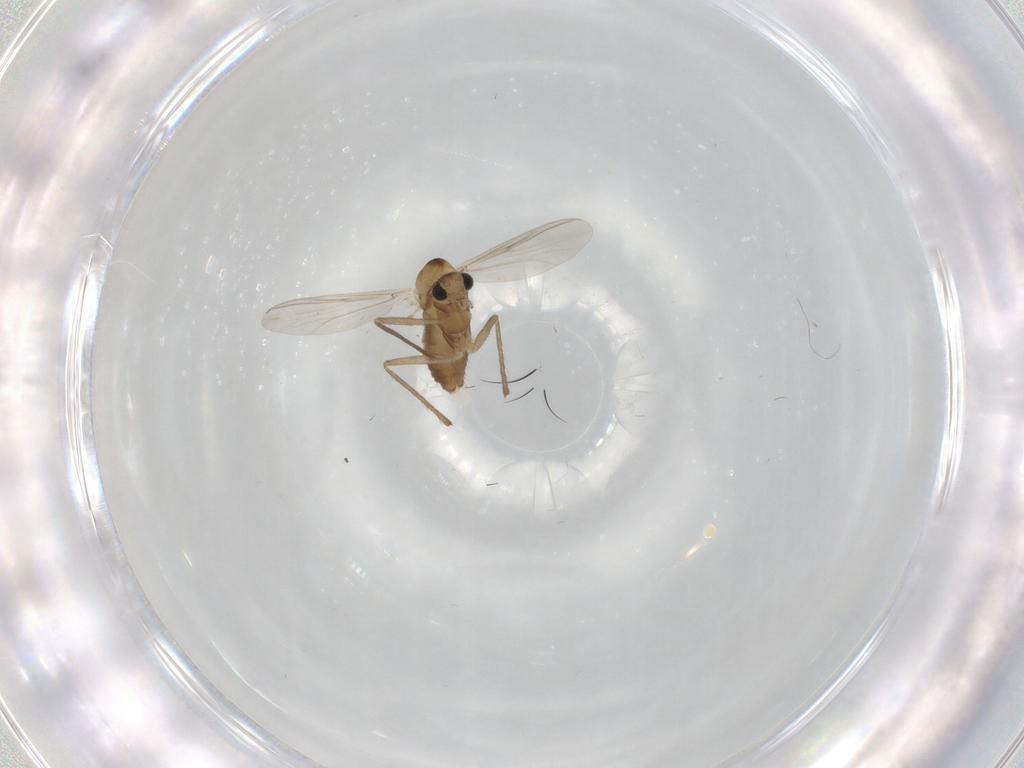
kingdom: Animalia
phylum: Arthropoda
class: Insecta
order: Diptera
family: Chironomidae
